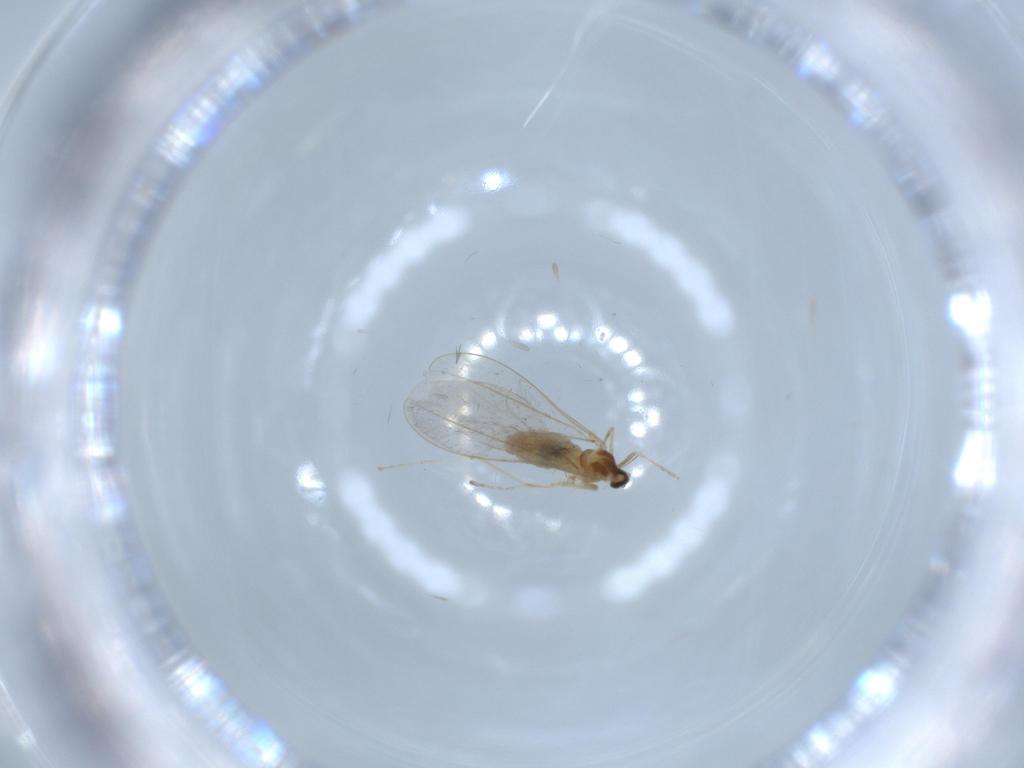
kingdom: Animalia
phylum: Arthropoda
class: Insecta
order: Diptera
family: Cecidomyiidae
